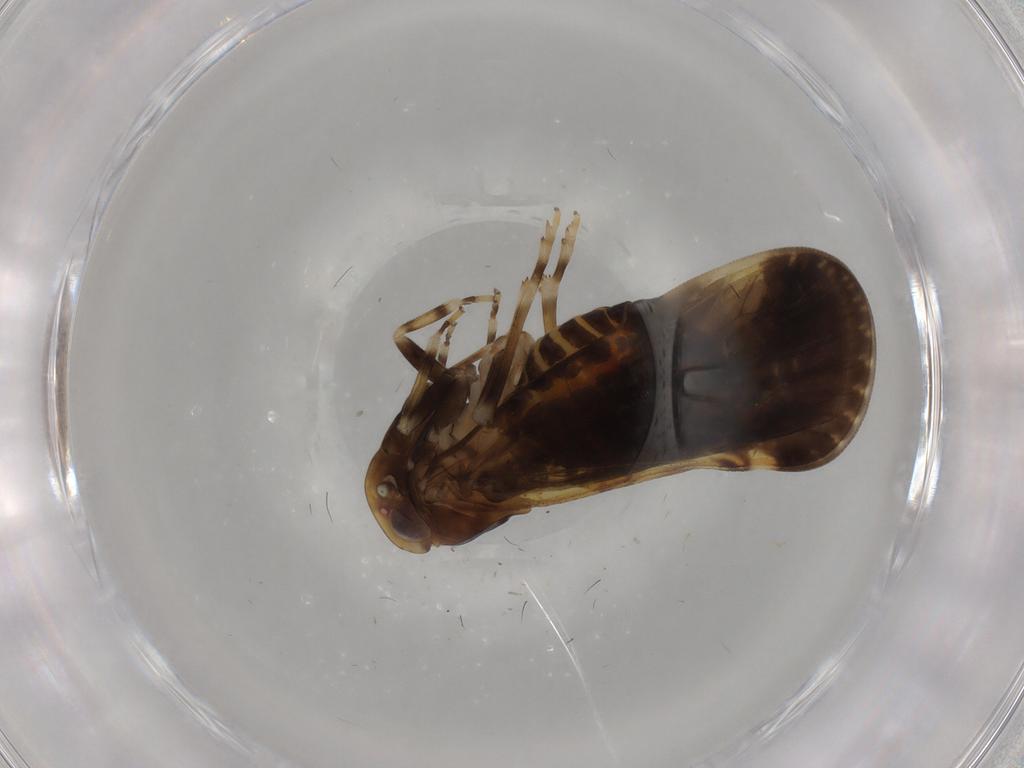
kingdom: Animalia
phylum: Arthropoda
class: Insecta
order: Hemiptera
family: Cixiidae
